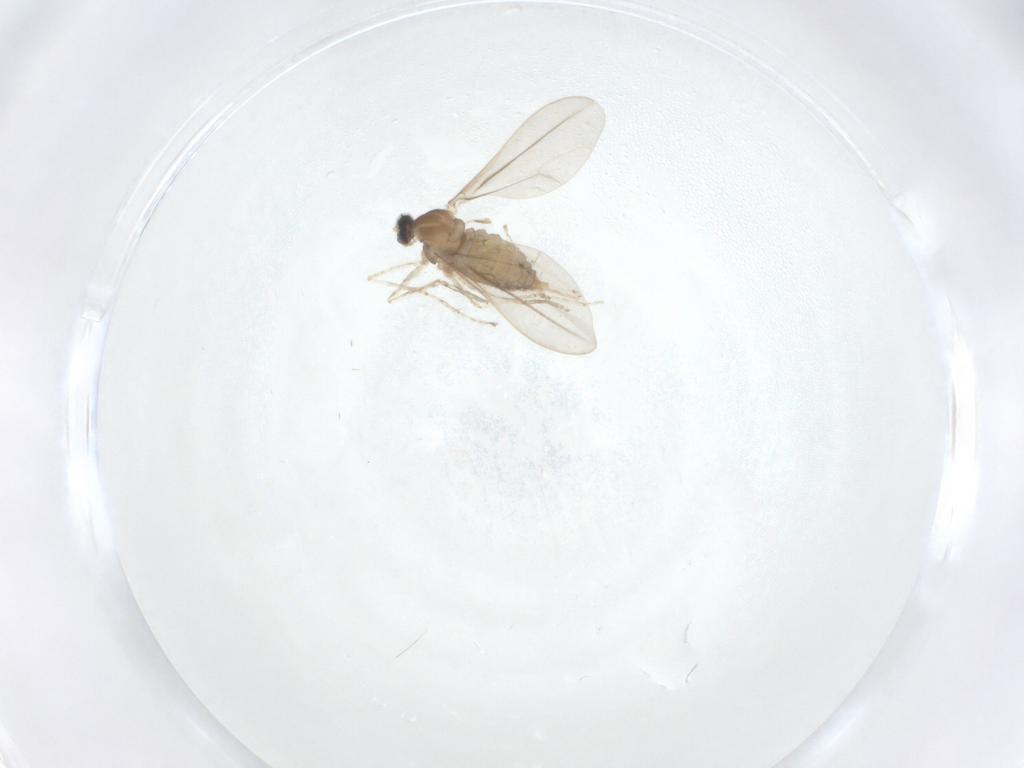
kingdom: Animalia
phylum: Arthropoda
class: Insecta
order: Diptera
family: Cecidomyiidae
